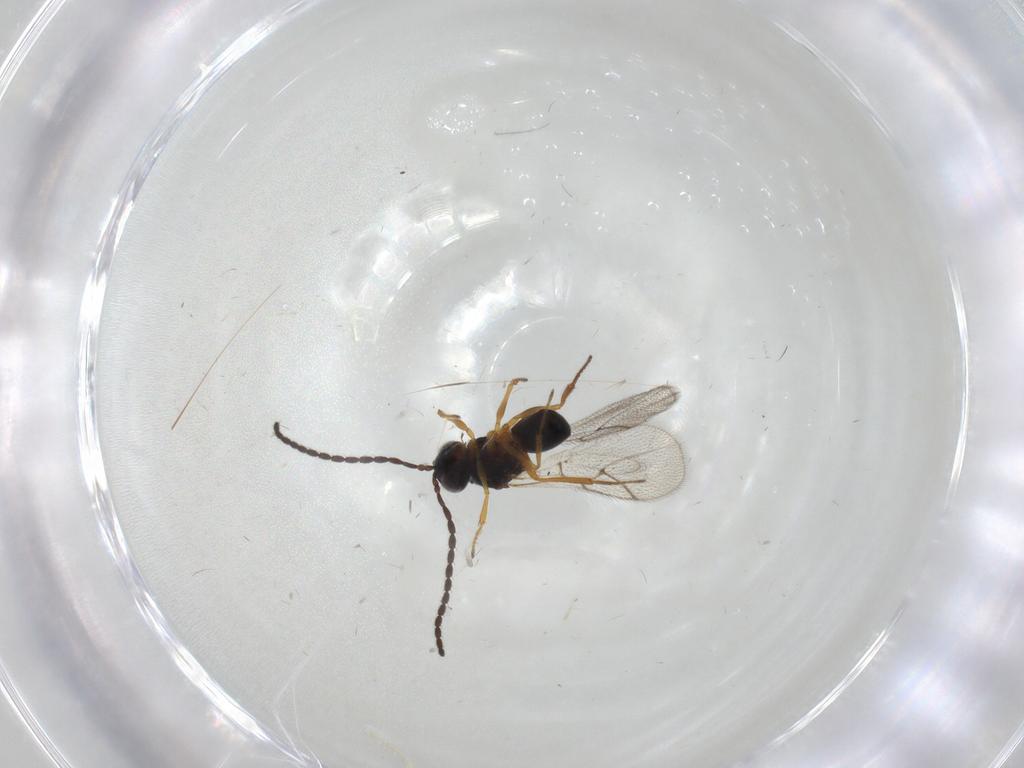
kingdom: Animalia
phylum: Arthropoda
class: Insecta
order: Hymenoptera
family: Figitidae
